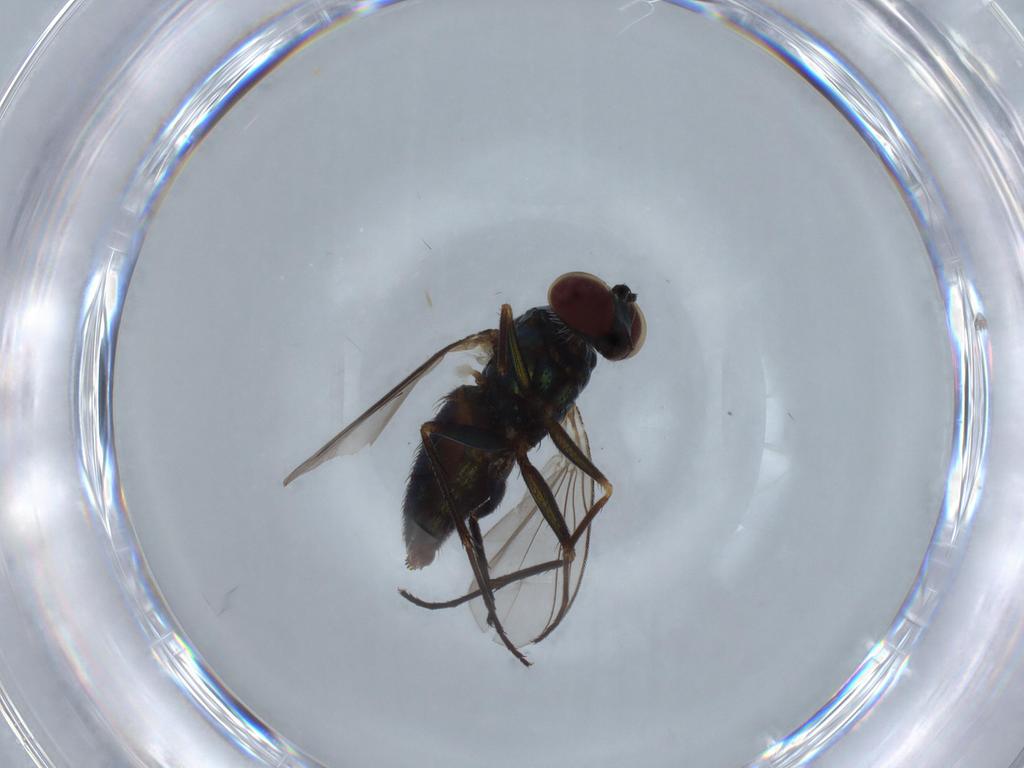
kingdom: Animalia
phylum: Arthropoda
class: Insecta
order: Diptera
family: Dolichopodidae
